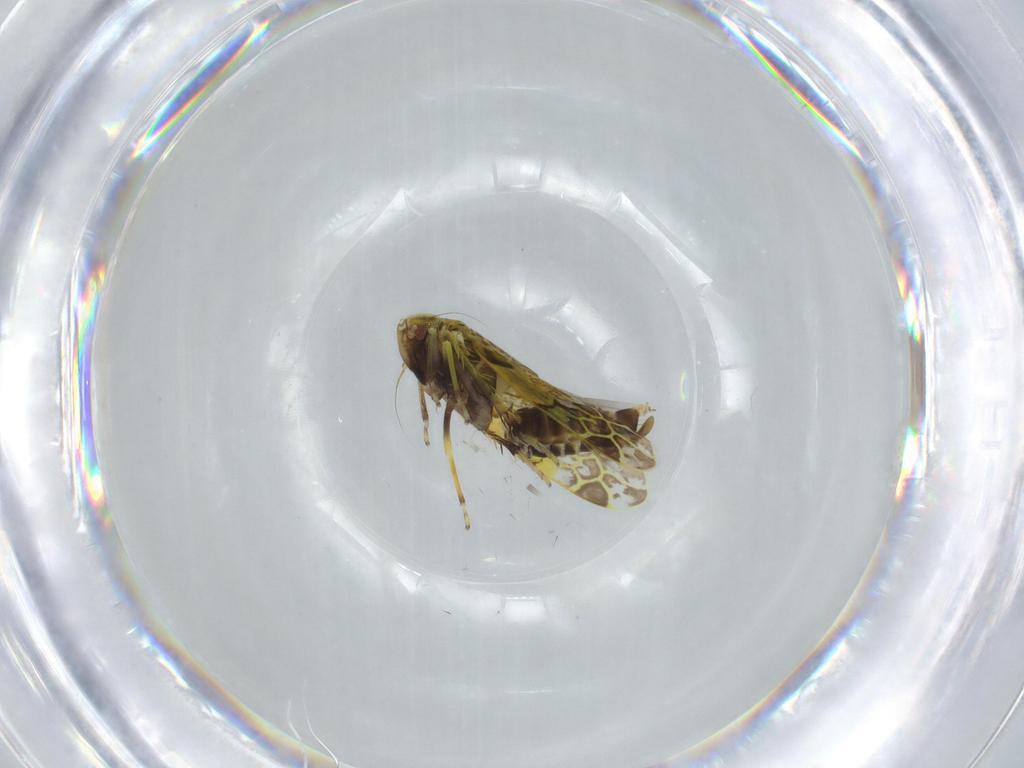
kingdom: Animalia
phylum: Arthropoda
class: Insecta
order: Hemiptera
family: Cicadellidae
